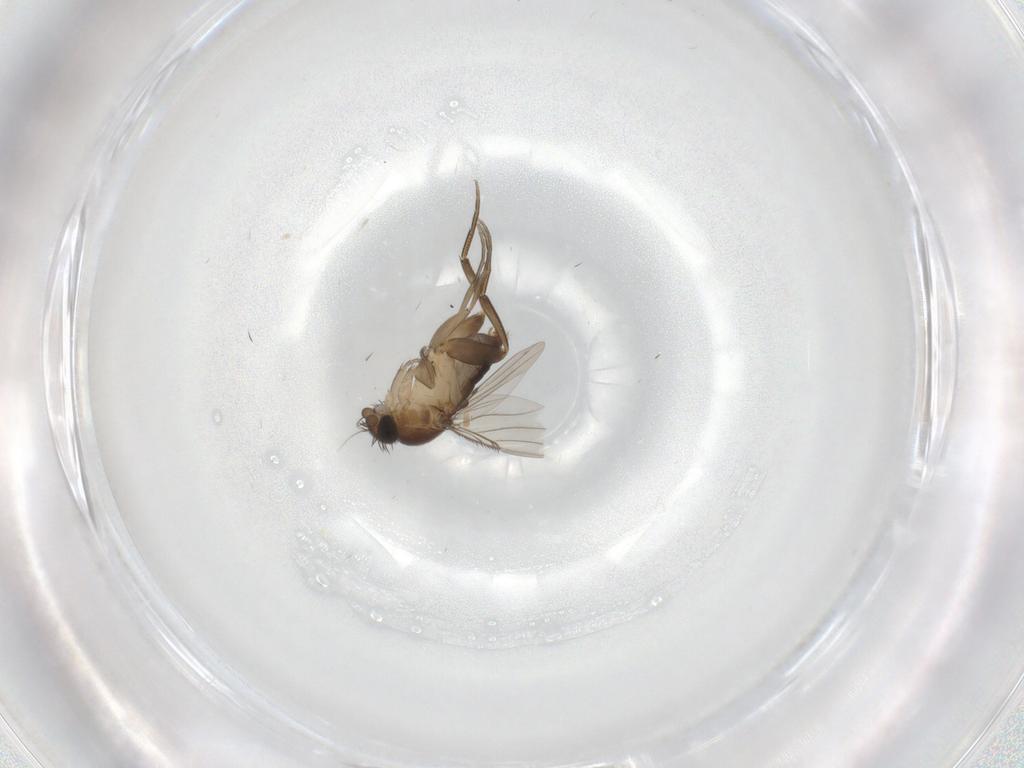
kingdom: Animalia
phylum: Arthropoda
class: Insecta
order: Diptera
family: Phoridae
